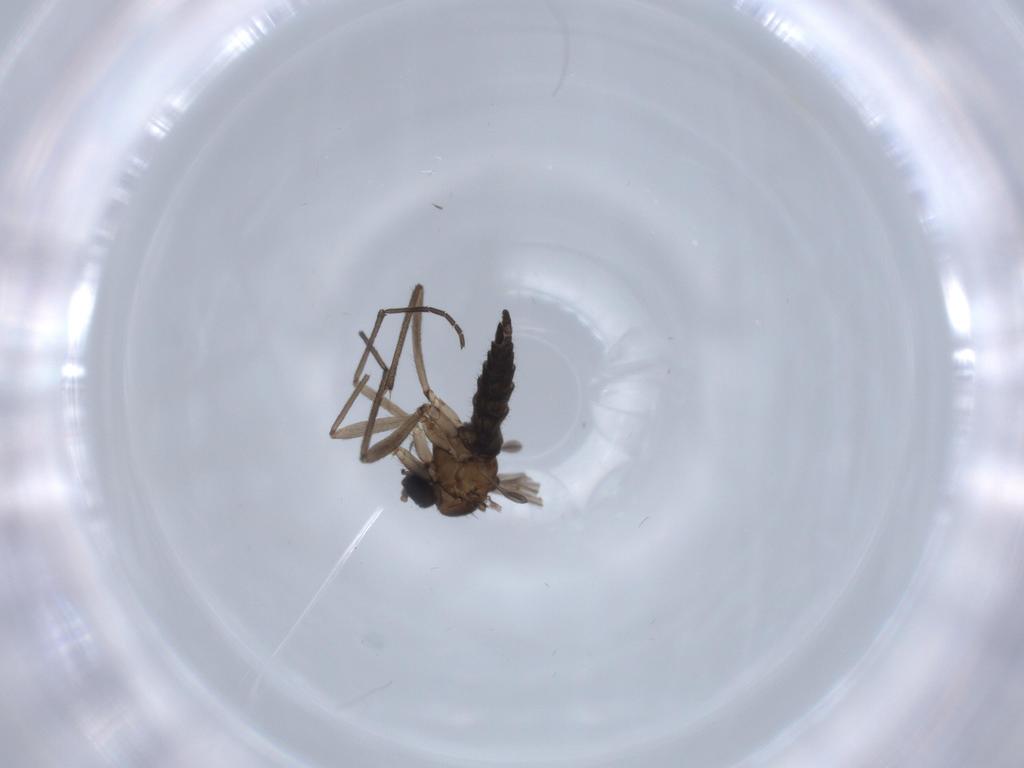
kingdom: Animalia
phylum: Arthropoda
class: Insecta
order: Diptera
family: Sciaridae
